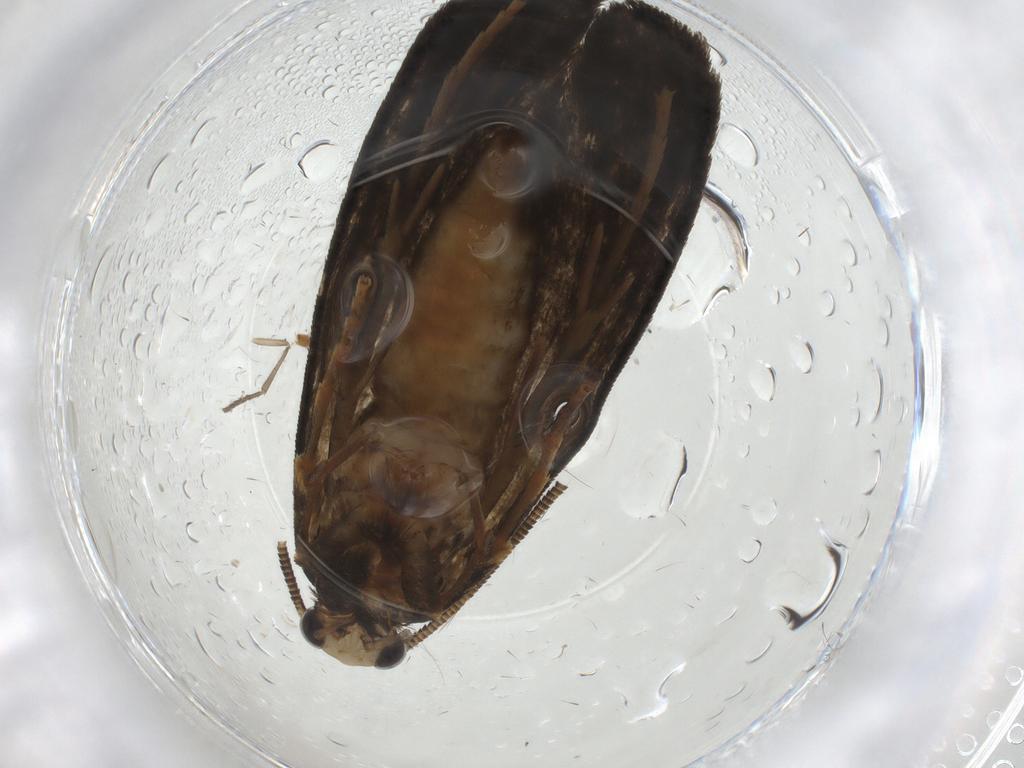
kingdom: Animalia
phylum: Arthropoda
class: Insecta
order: Lepidoptera
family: Tineidae
